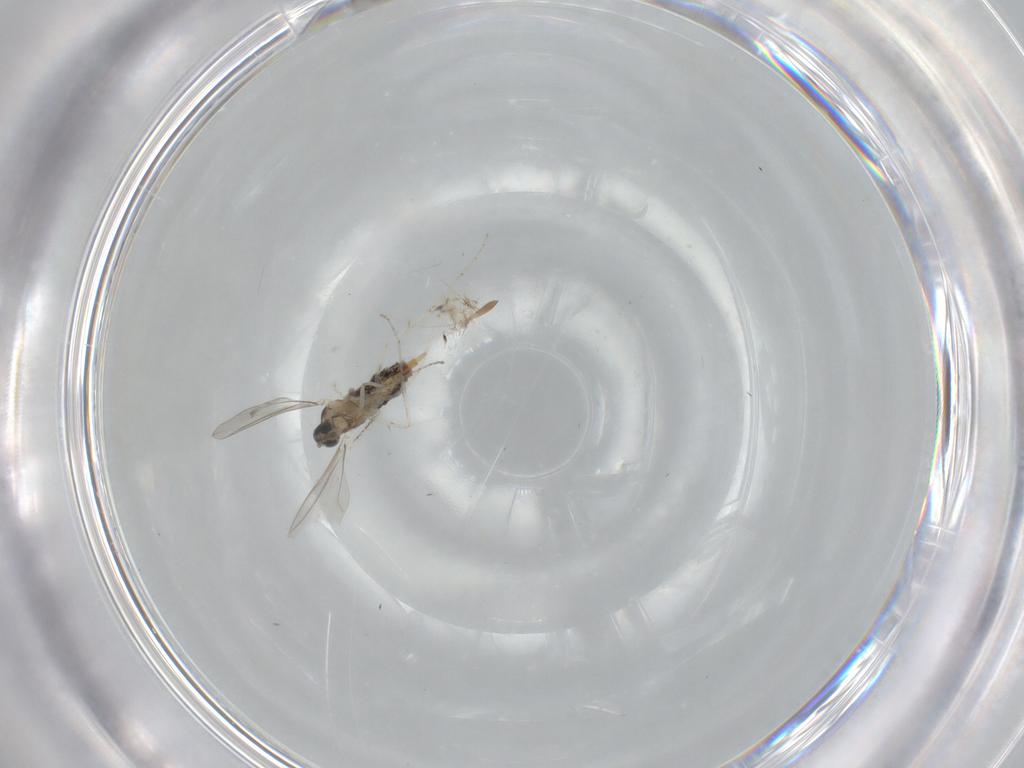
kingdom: Animalia
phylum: Arthropoda
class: Insecta
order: Diptera
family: Cecidomyiidae
